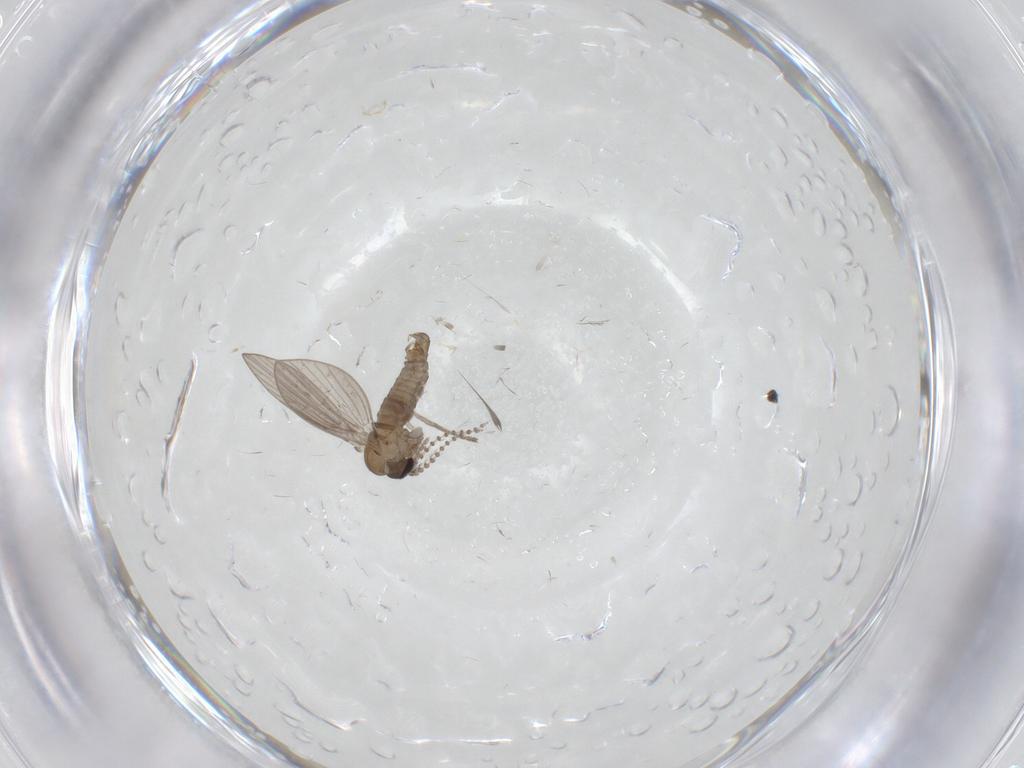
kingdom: Animalia
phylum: Arthropoda
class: Insecta
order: Diptera
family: Psychodidae
